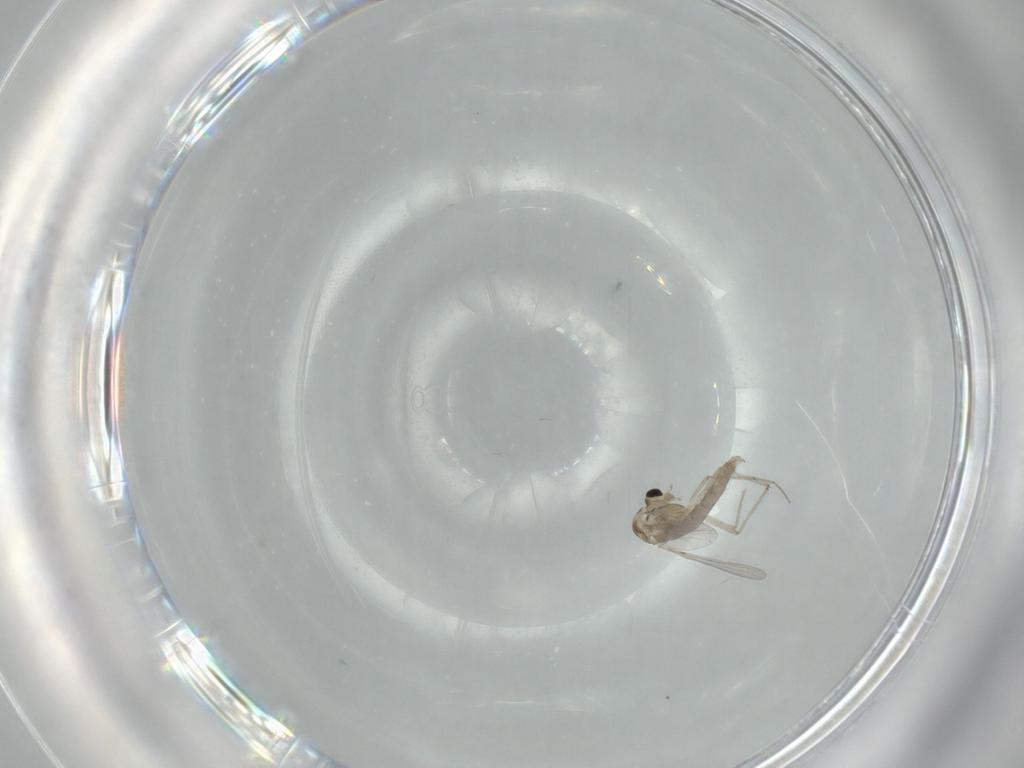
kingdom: Animalia
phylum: Arthropoda
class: Insecta
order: Diptera
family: Chironomidae
